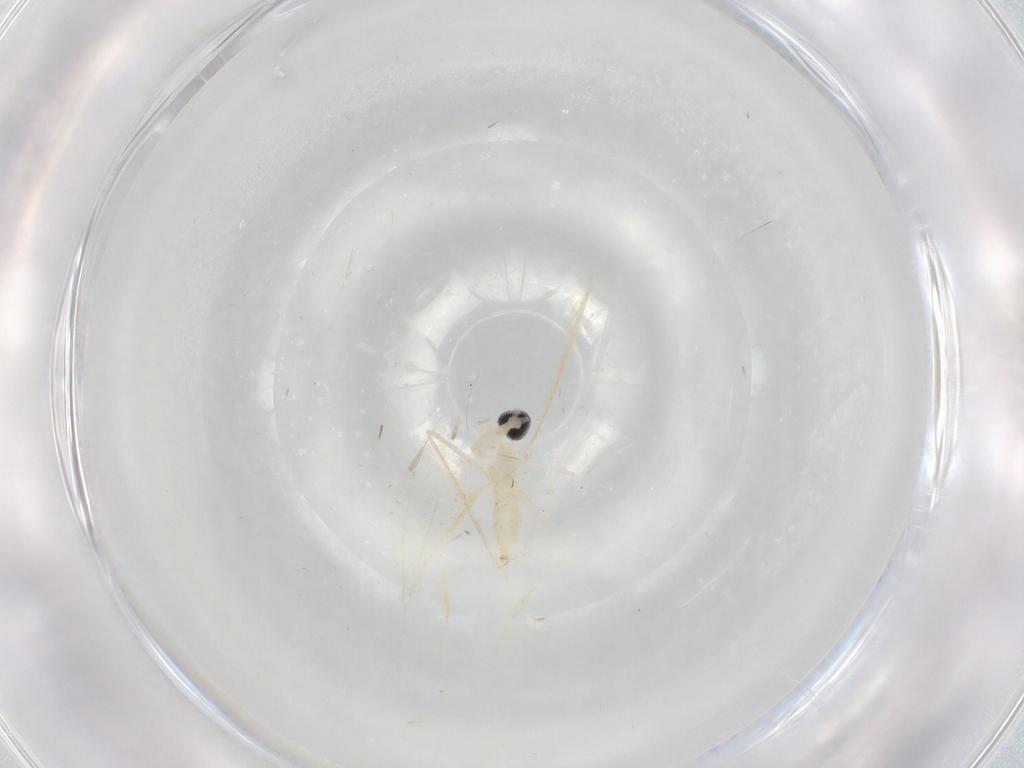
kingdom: Animalia
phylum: Arthropoda
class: Insecta
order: Diptera
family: Cecidomyiidae
